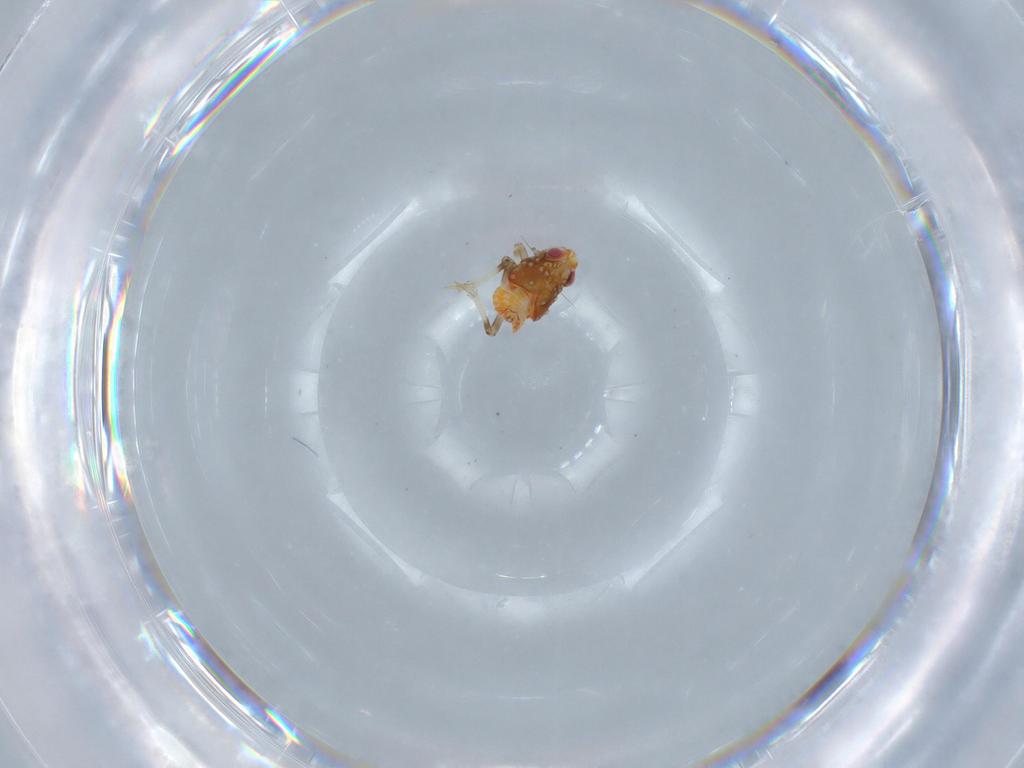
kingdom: Animalia
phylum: Arthropoda
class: Insecta
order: Hemiptera
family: Issidae
